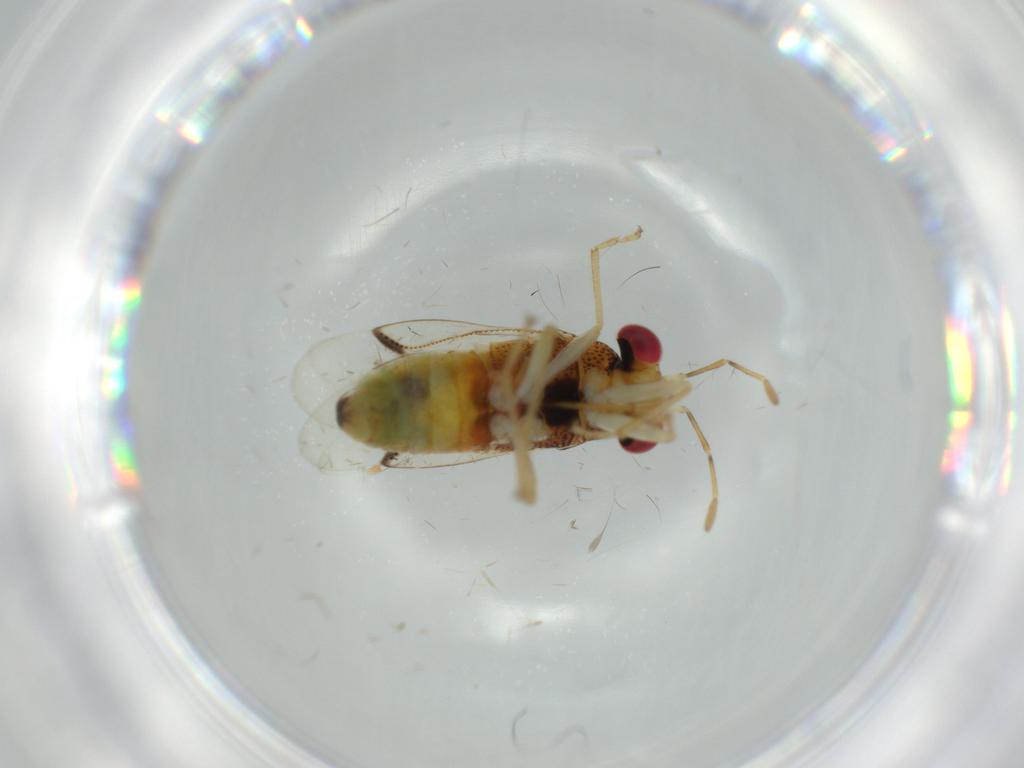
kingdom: Animalia
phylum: Arthropoda
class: Insecta
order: Hemiptera
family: Geocoridae
